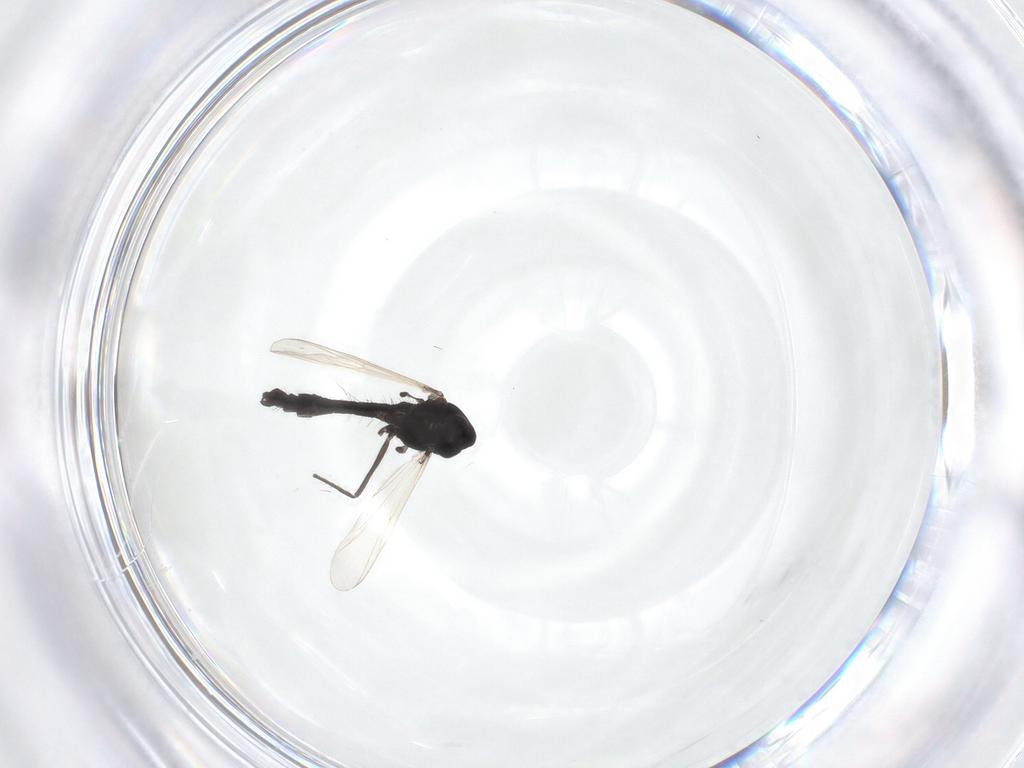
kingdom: Animalia
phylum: Arthropoda
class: Insecta
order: Diptera
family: Chironomidae
